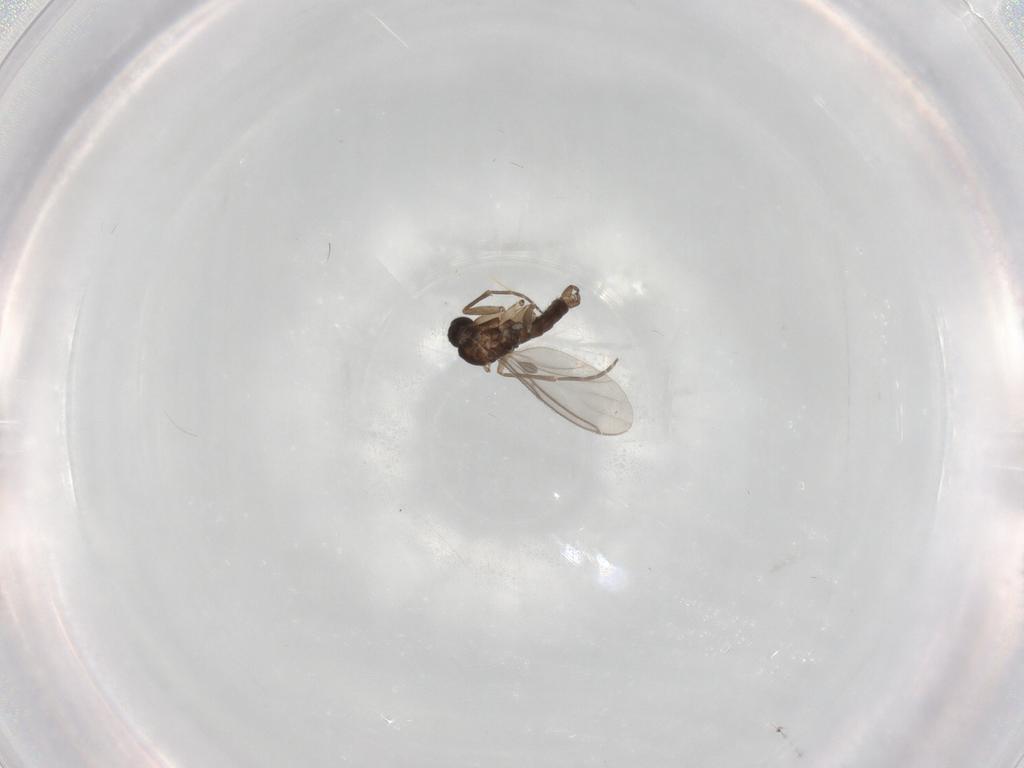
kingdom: Animalia
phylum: Arthropoda
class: Insecta
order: Diptera
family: Sciaridae
